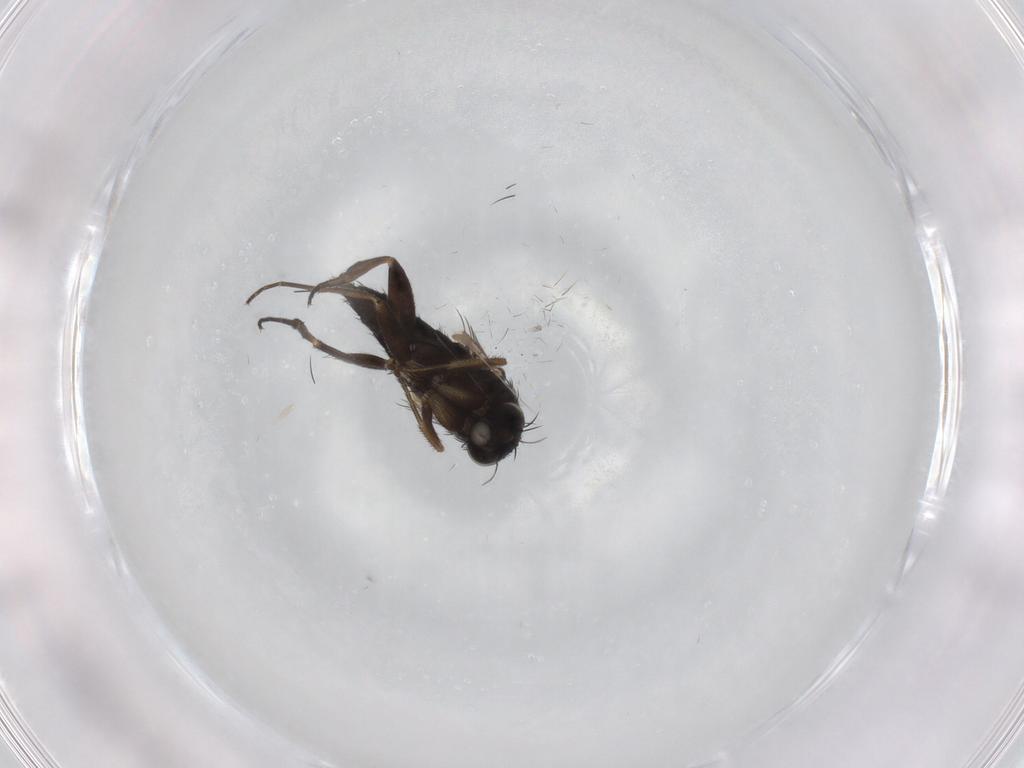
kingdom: Animalia
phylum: Arthropoda
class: Insecta
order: Diptera
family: Phoridae
